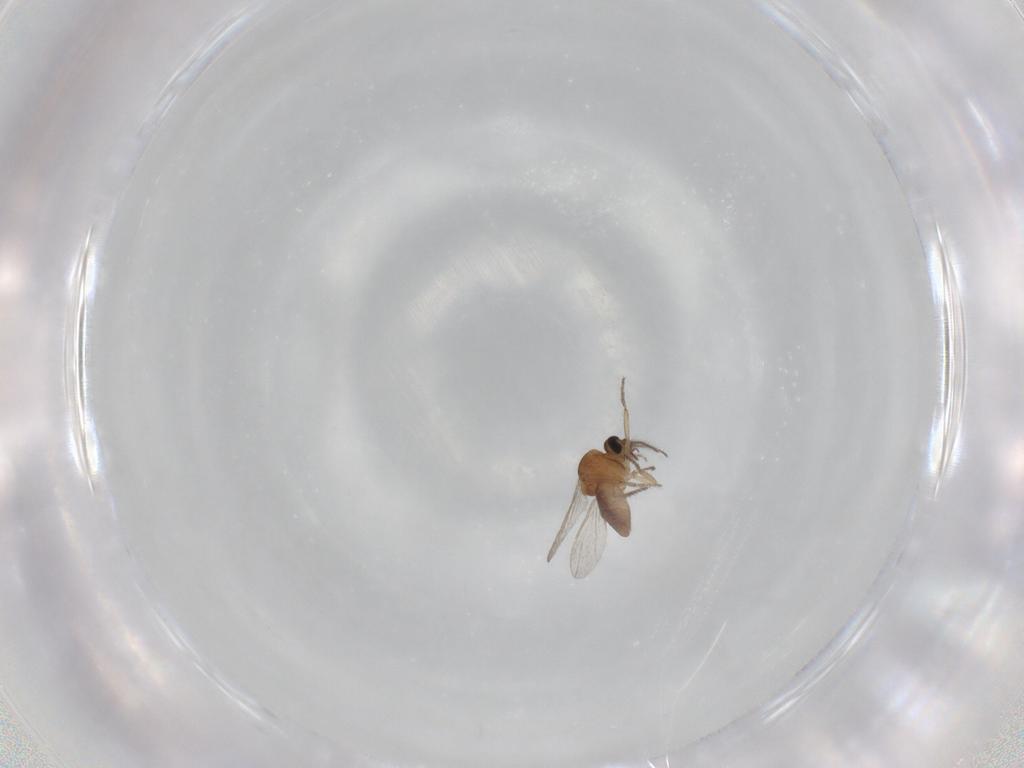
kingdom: Animalia
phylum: Arthropoda
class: Insecta
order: Diptera
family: Ceratopogonidae
